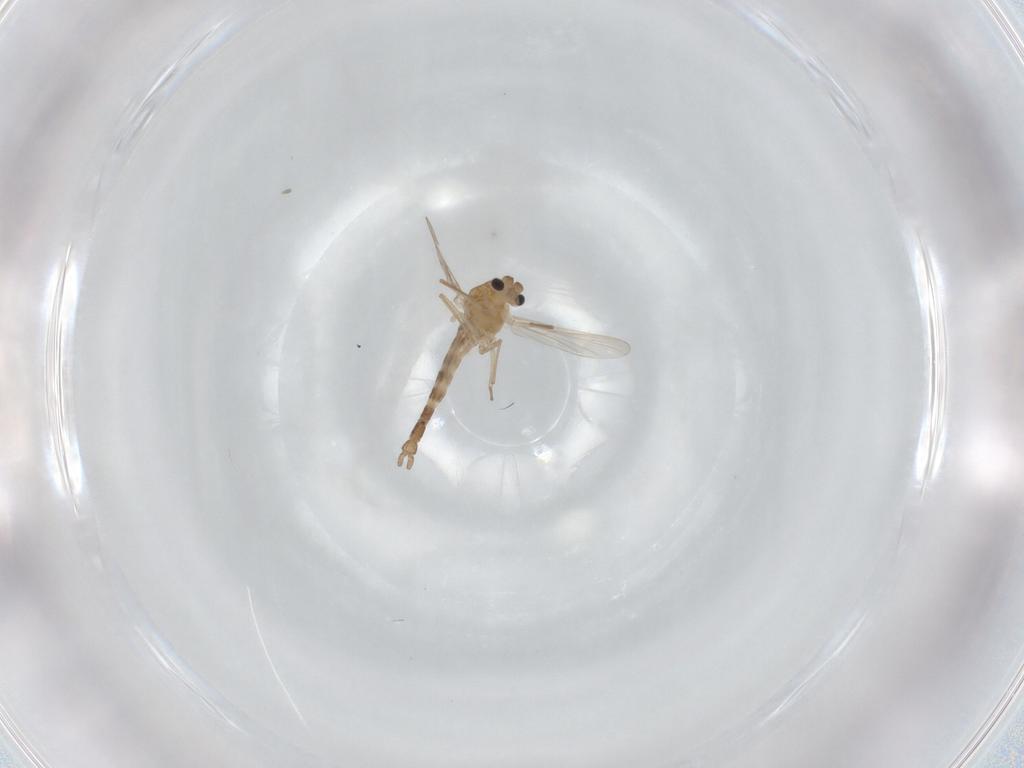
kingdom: Animalia
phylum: Arthropoda
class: Insecta
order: Diptera
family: Chironomidae
